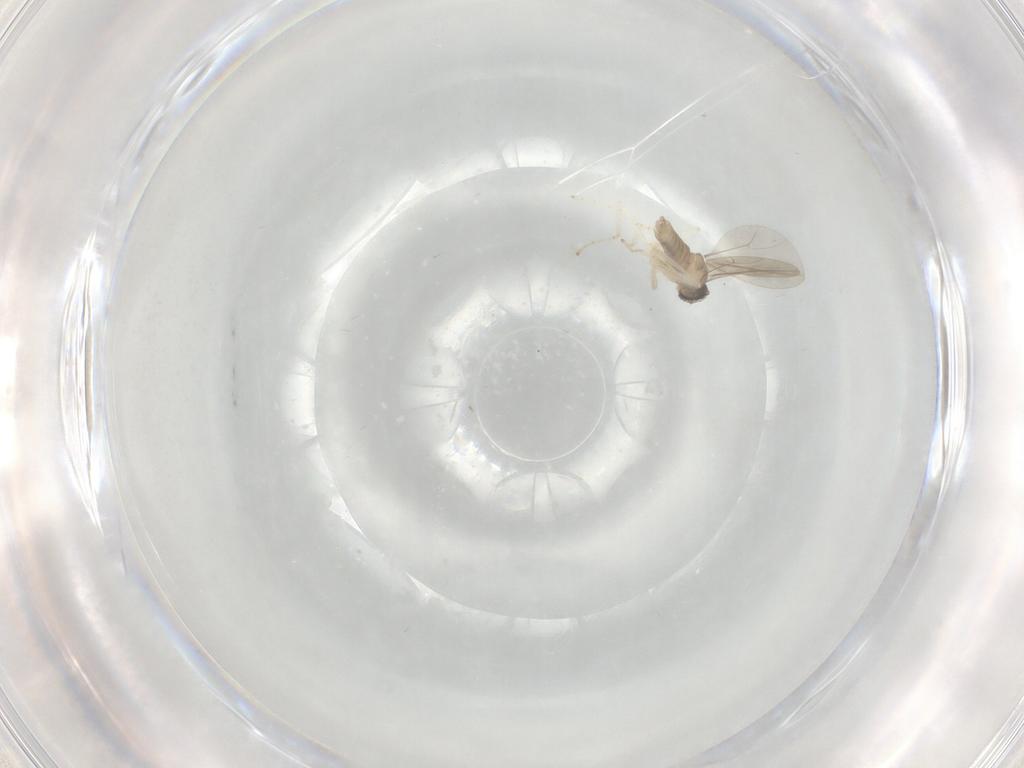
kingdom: Animalia
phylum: Arthropoda
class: Insecta
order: Diptera
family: Cecidomyiidae
